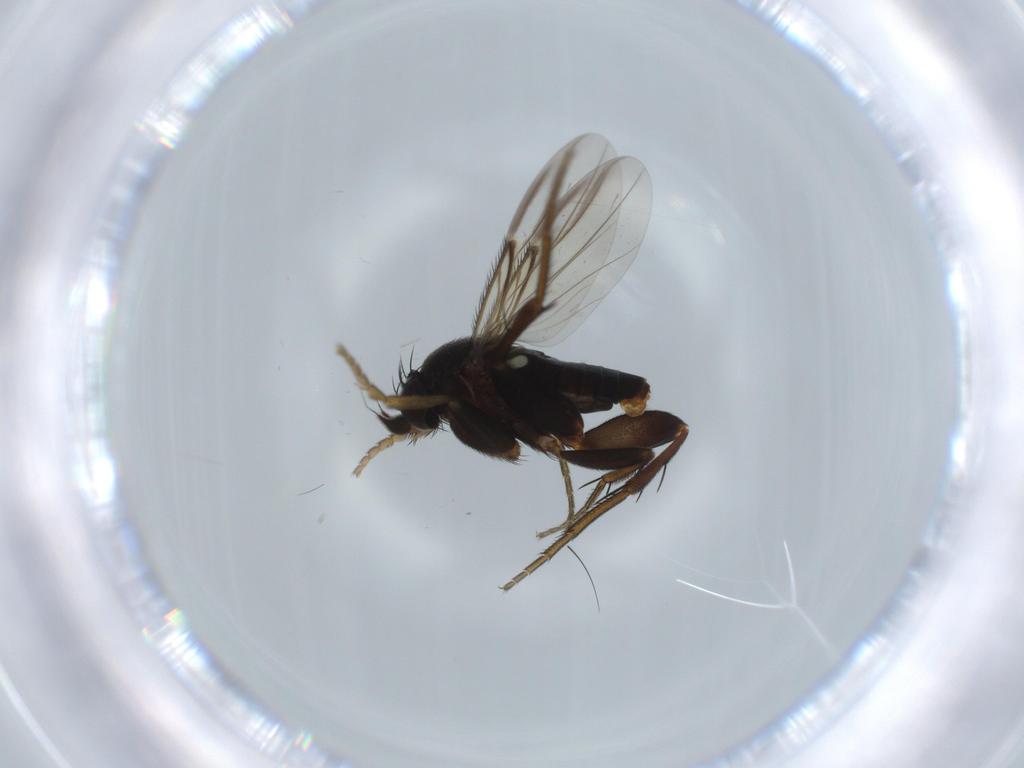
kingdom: Animalia
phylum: Arthropoda
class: Insecta
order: Diptera
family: Phoridae
